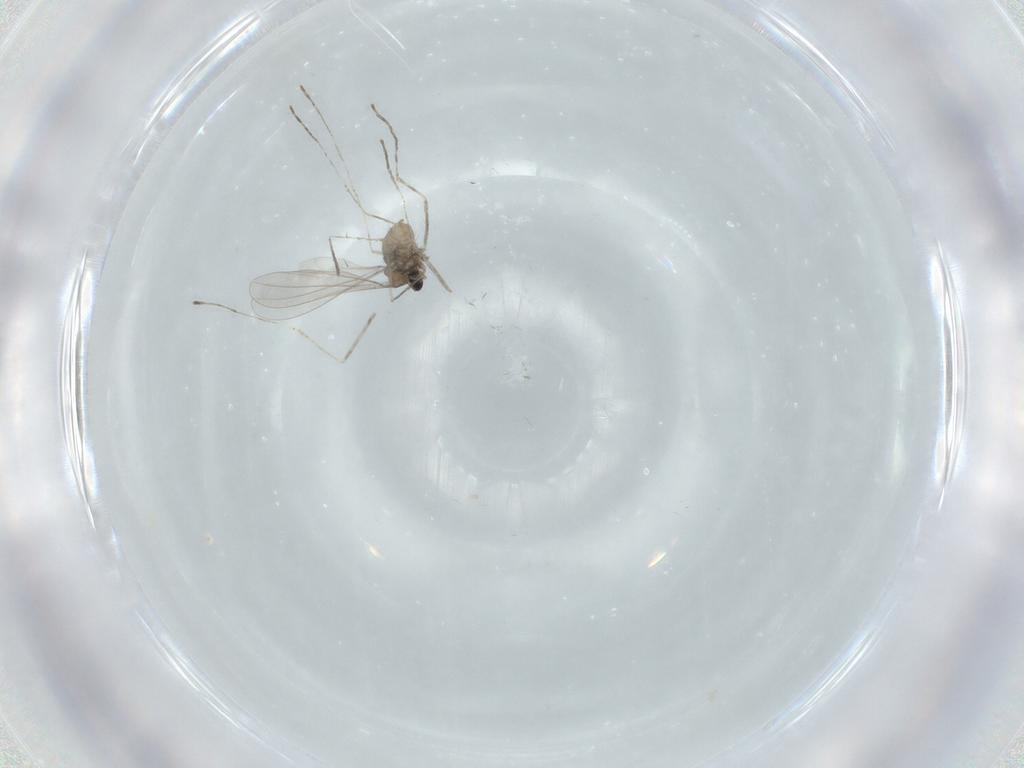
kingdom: Animalia
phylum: Arthropoda
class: Insecta
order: Diptera
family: Cecidomyiidae
